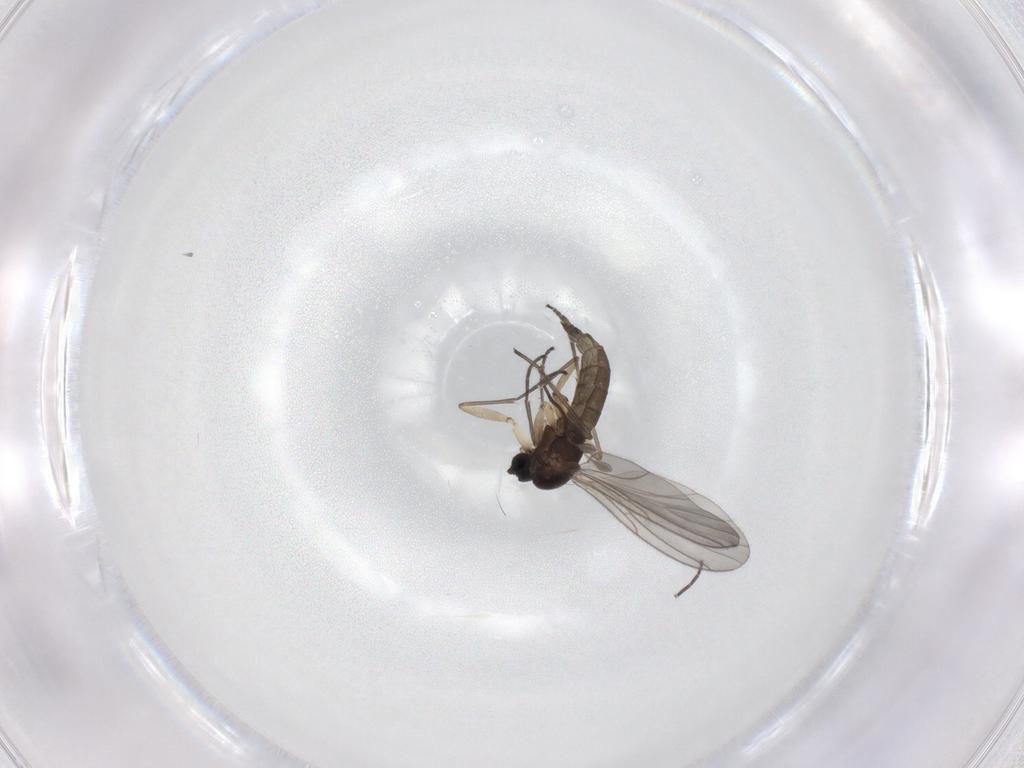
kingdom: Animalia
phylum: Arthropoda
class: Insecta
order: Diptera
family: Sciaridae
